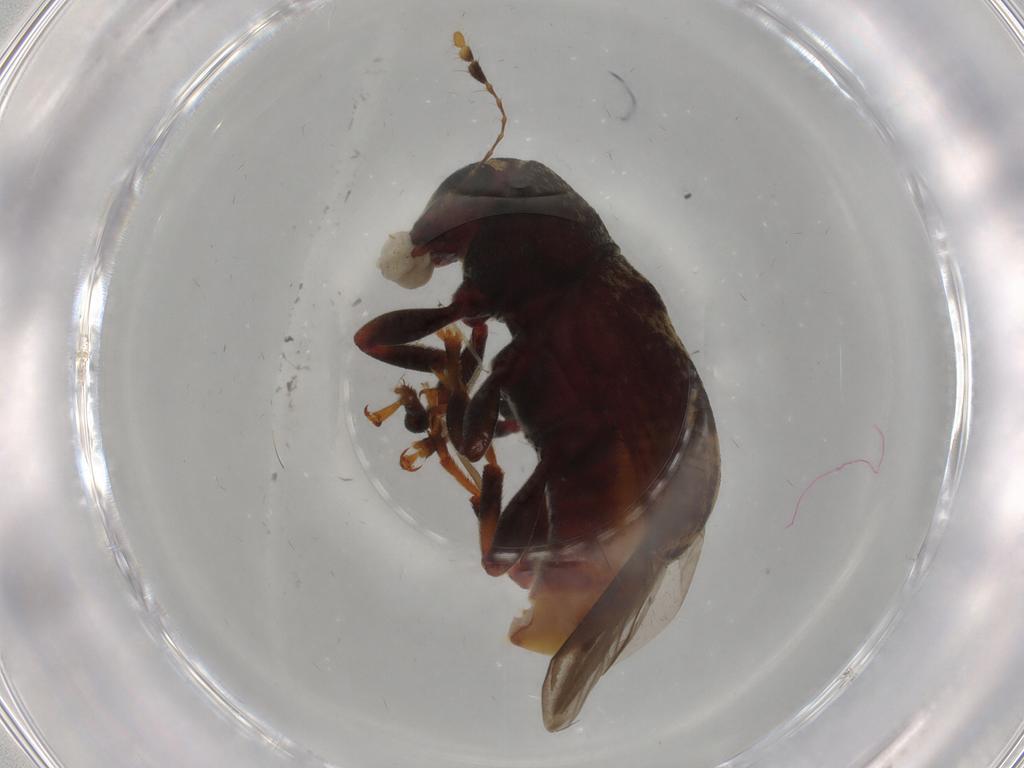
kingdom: Animalia
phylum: Arthropoda
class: Insecta
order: Coleoptera
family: Anthribidae
